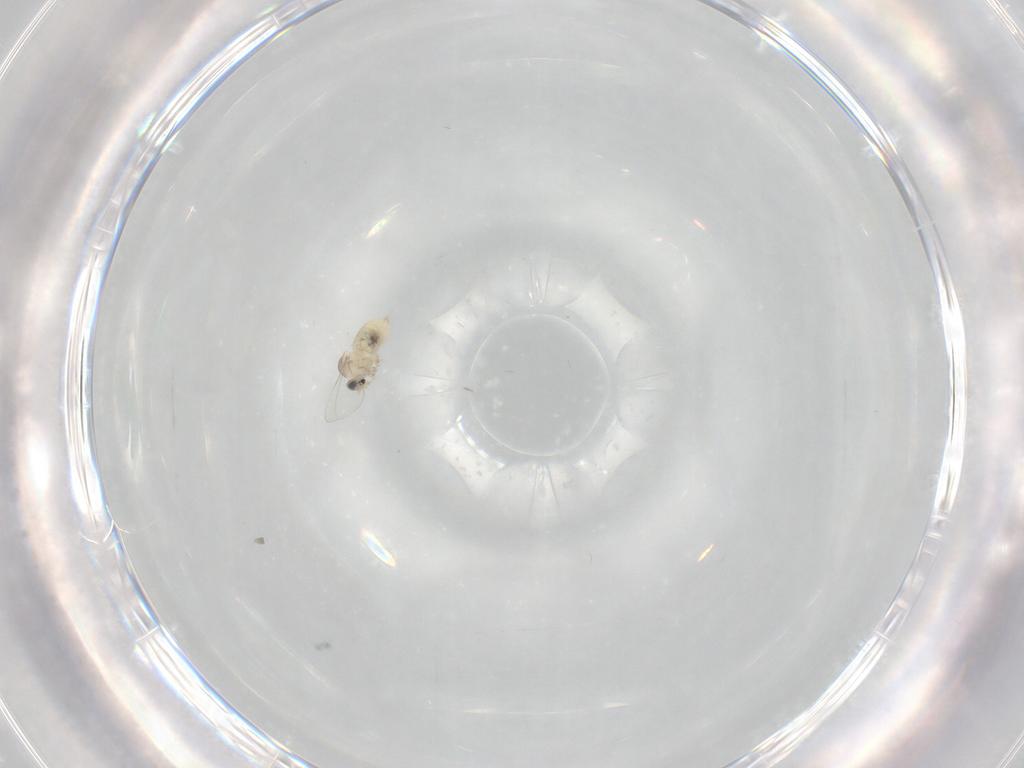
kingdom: Animalia
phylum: Arthropoda
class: Insecta
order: Diptera
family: Cecidomyiidae
